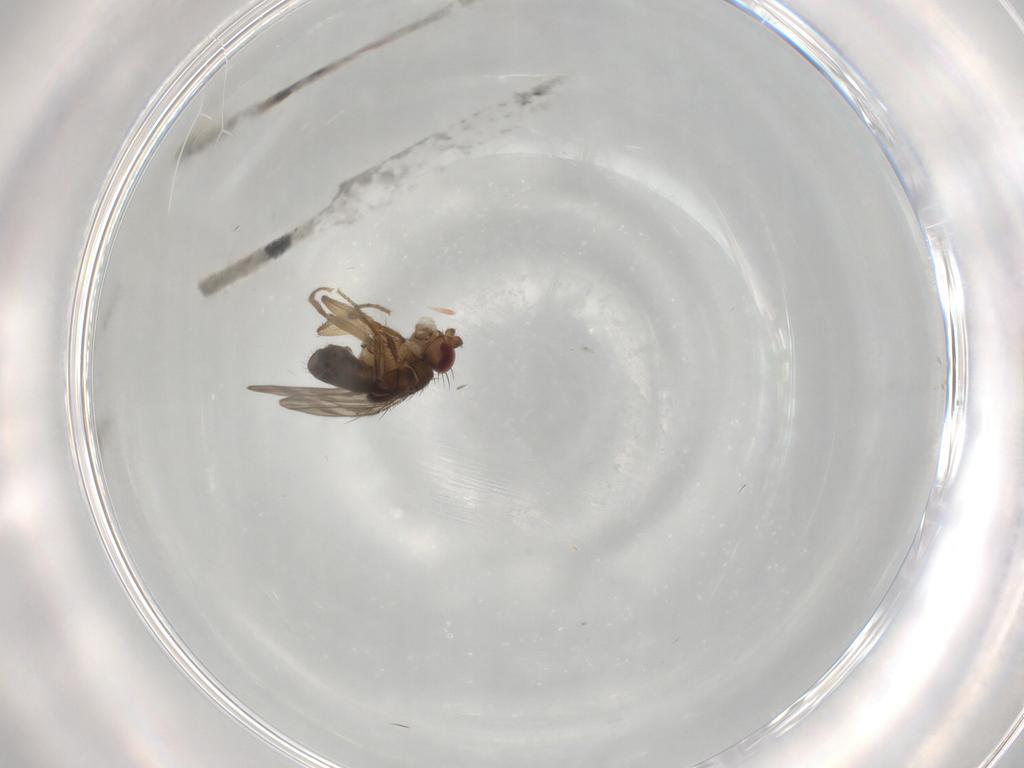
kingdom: Animalia
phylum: Arthropoda
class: Insecta
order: Diptera
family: Sphaeroceridae
